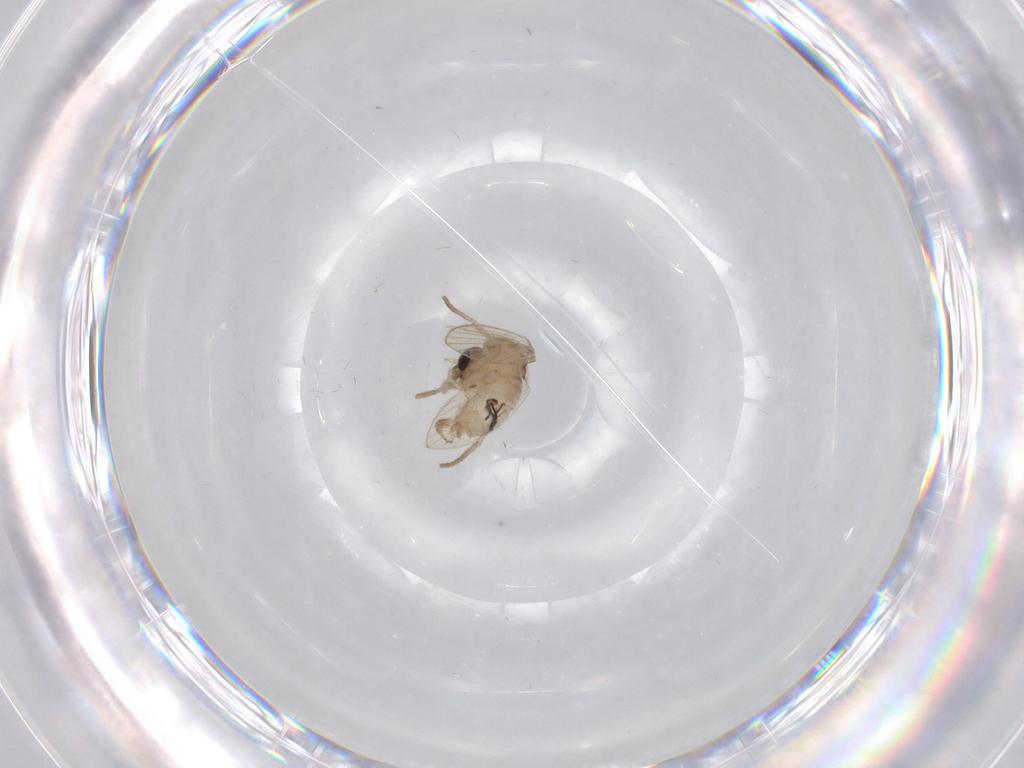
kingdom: Animalia
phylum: Arthropoda
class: Insecta
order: Diptera
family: Psychodidae
